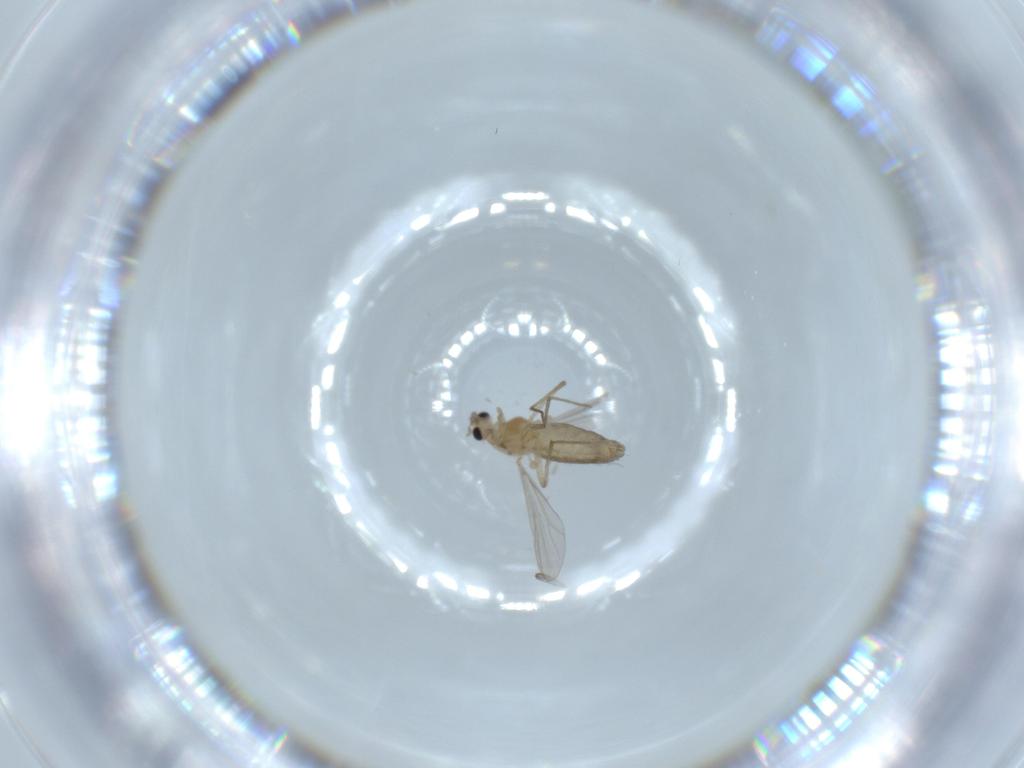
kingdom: Animalia
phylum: Arthropoda
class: Insecta
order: Diptera
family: Chironomidae
